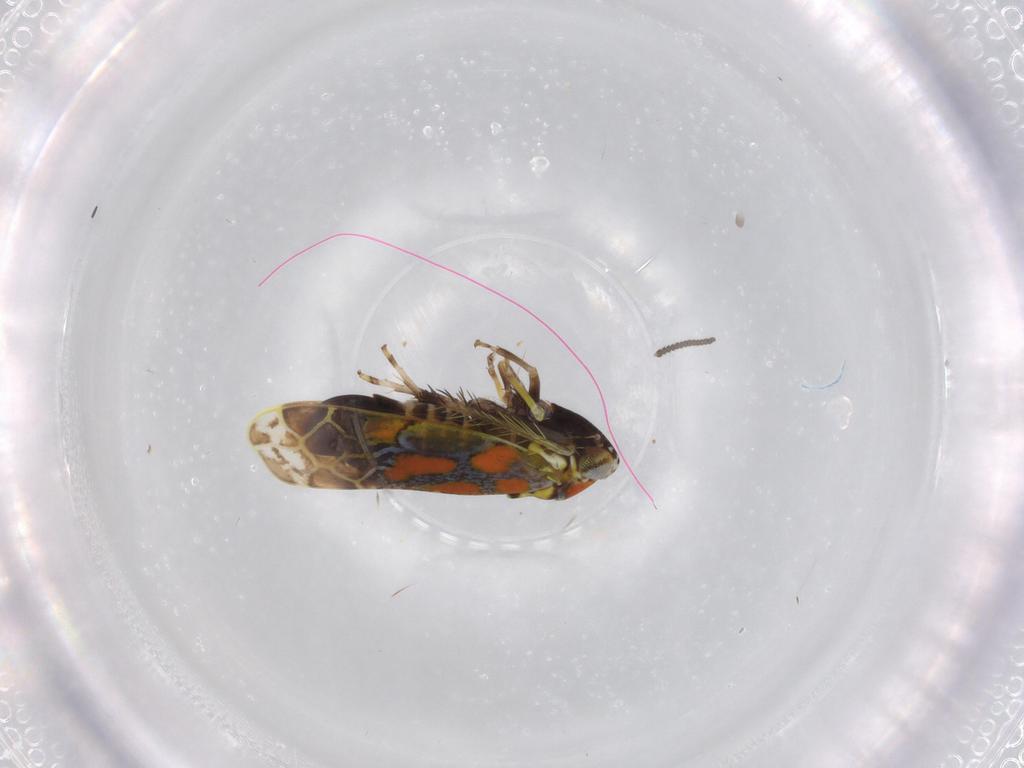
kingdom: Animalia
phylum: Arthropoda
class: Insecta
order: Hemiptera
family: Cicadellidae
